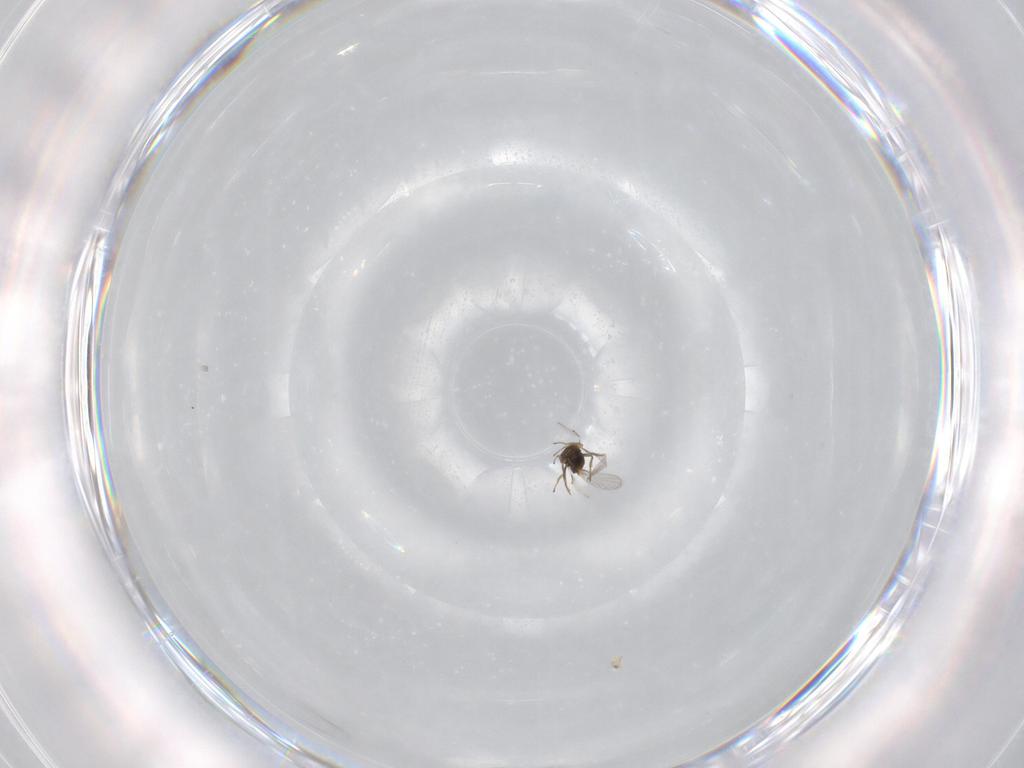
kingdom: Animalia
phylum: Arthropoda
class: Insecta
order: Hymenoptera
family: Trichogrammatidae
